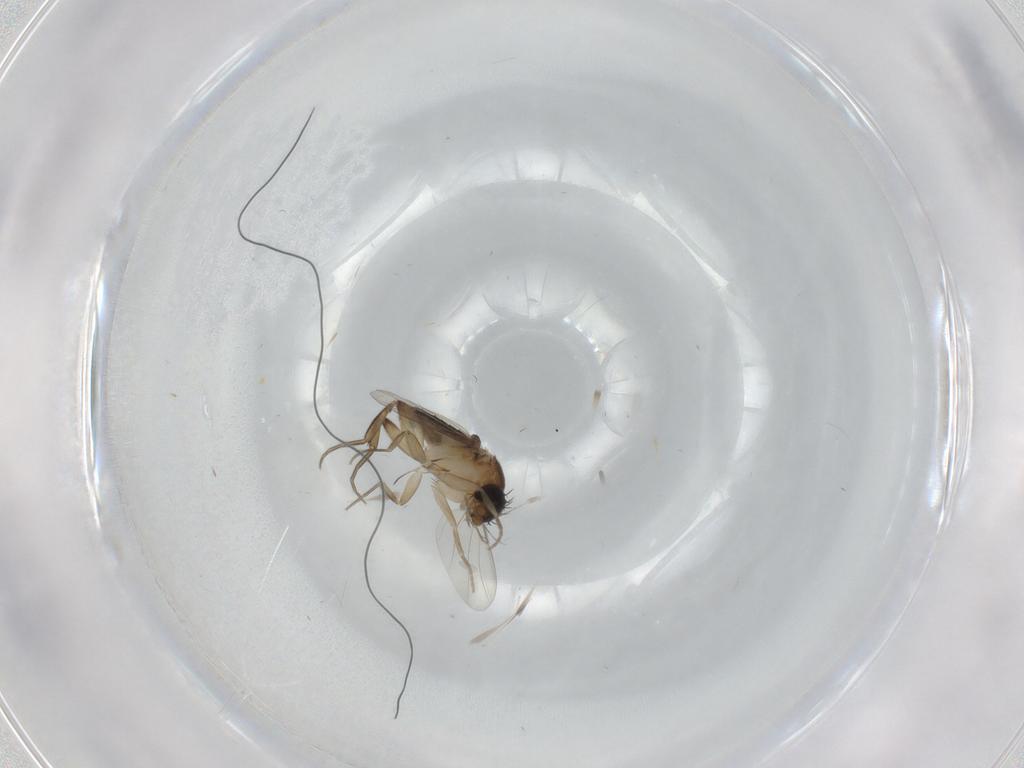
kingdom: Animalia
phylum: Arthropoda
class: Insecta
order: Diptera
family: Phoridae
